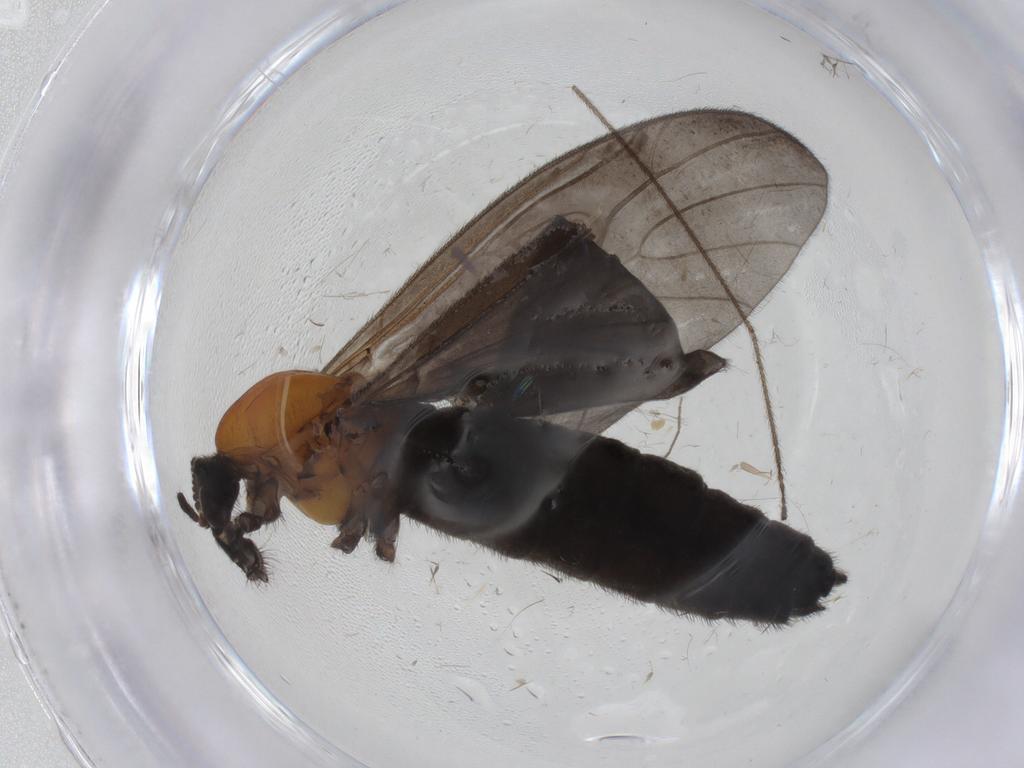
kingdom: Animalia
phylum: Arthropoda
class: Insecta
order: Diptera
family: Bibionidae
